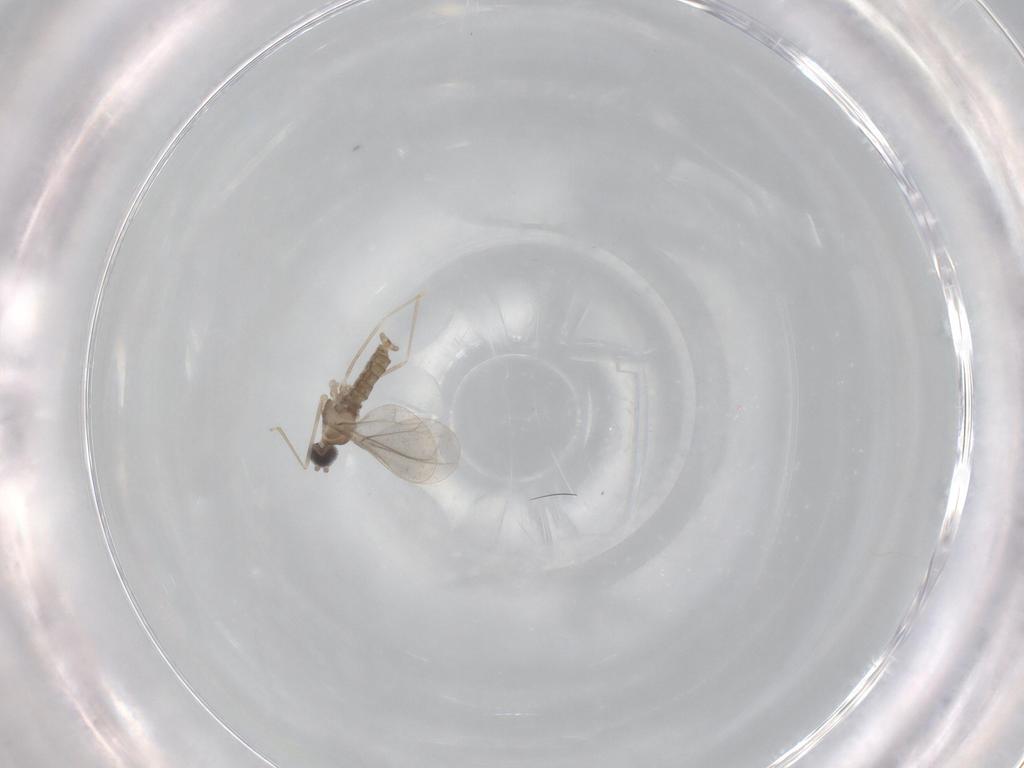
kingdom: Animalia
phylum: Arthropoda
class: Insecta
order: Diptera
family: Cecidomyiidae
